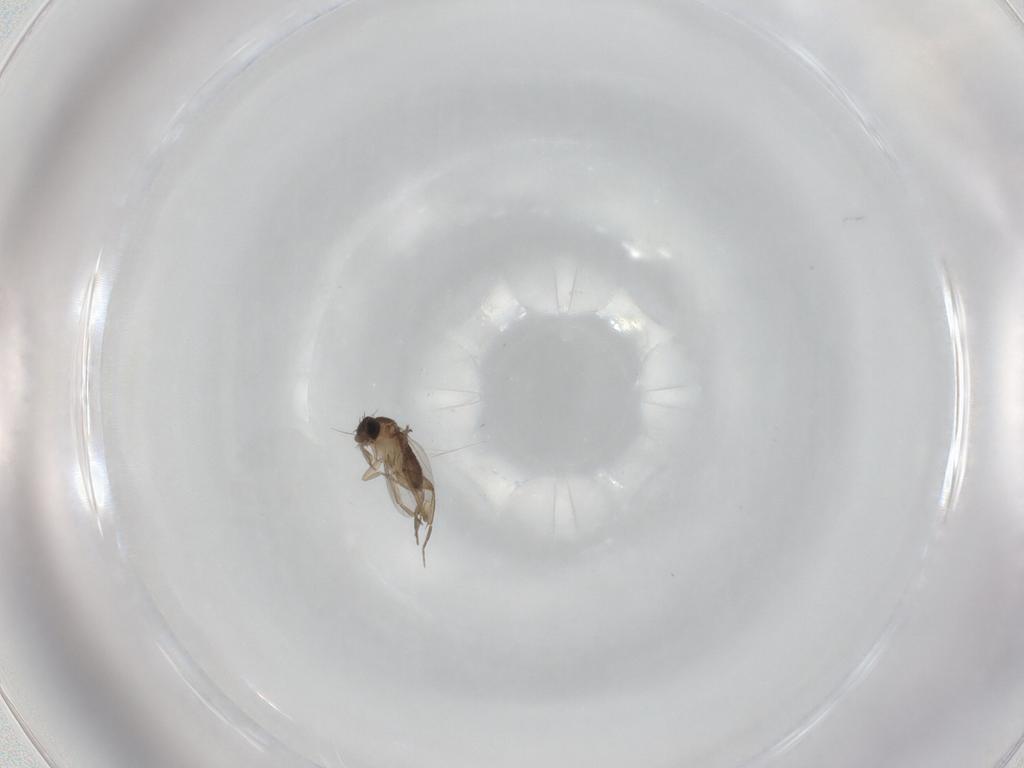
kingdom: Animalia
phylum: Arthropoda
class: Insecta
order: Diptera
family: Phoridae
